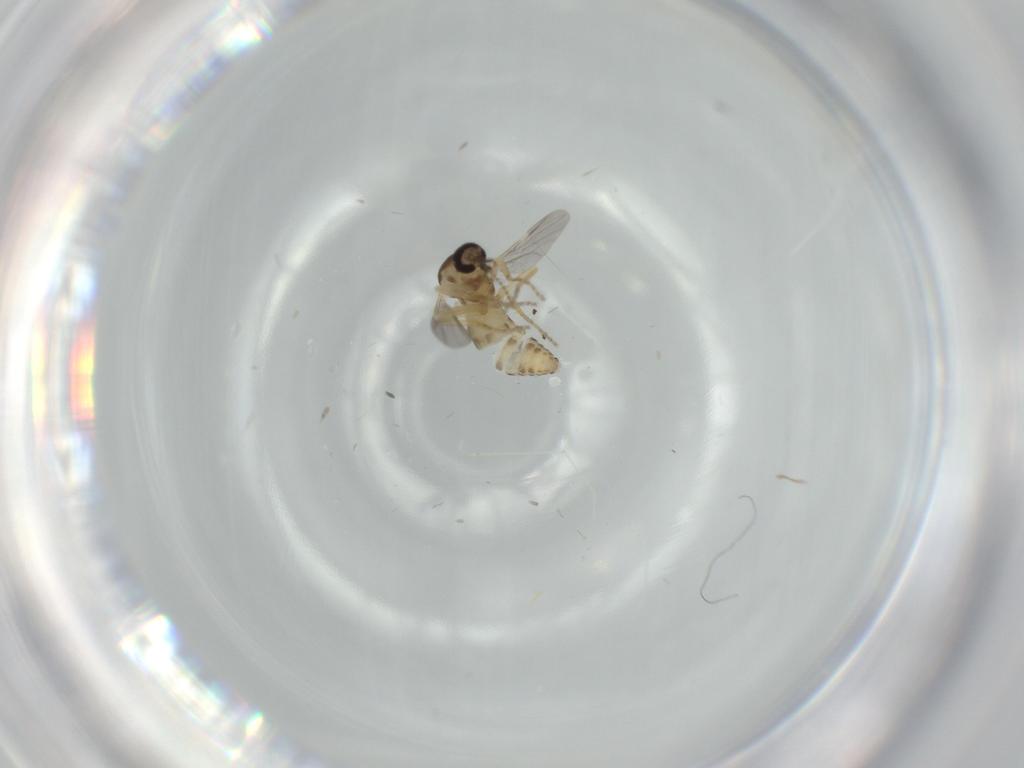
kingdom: Animalia
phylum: Arthropoda
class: Insecta
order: Diptera
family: Ceratopogonidae
